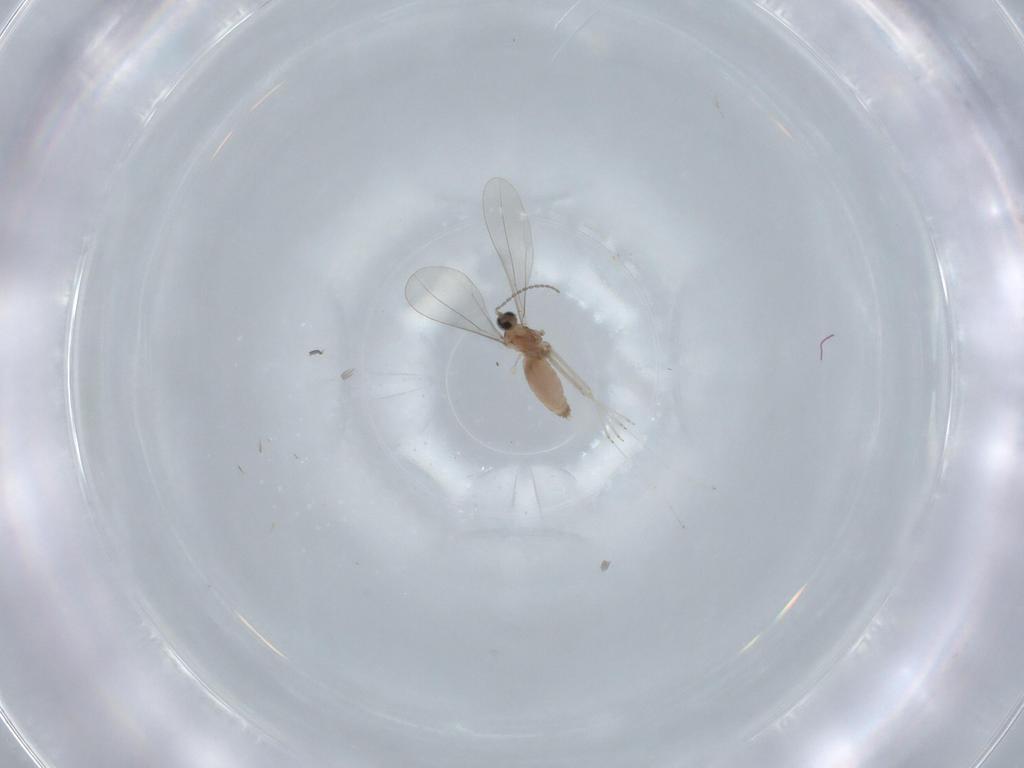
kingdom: Animalia
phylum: Arthropoda
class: Insecta
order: Diptera
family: Cecidomyiidae
